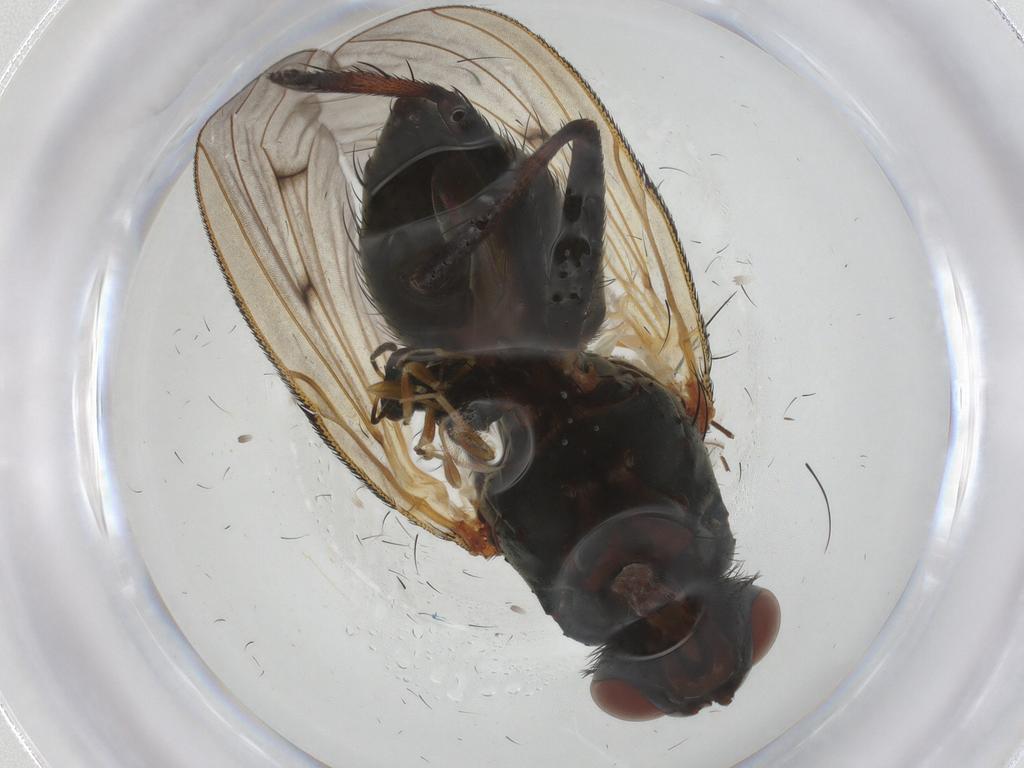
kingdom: Animalia
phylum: Arthropoda
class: Insecta
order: Diptera
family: Anthomyiidae
